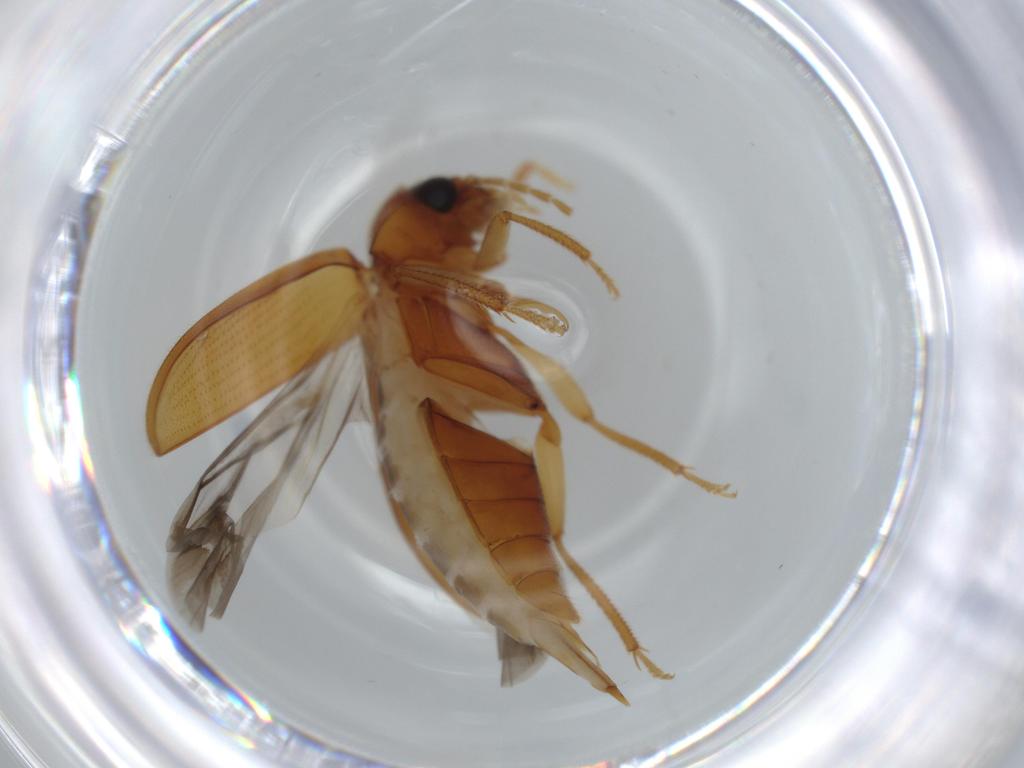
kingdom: Animalia
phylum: Arthropoda
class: Insecta
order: Coleoptera
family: Ptilodactylidae
